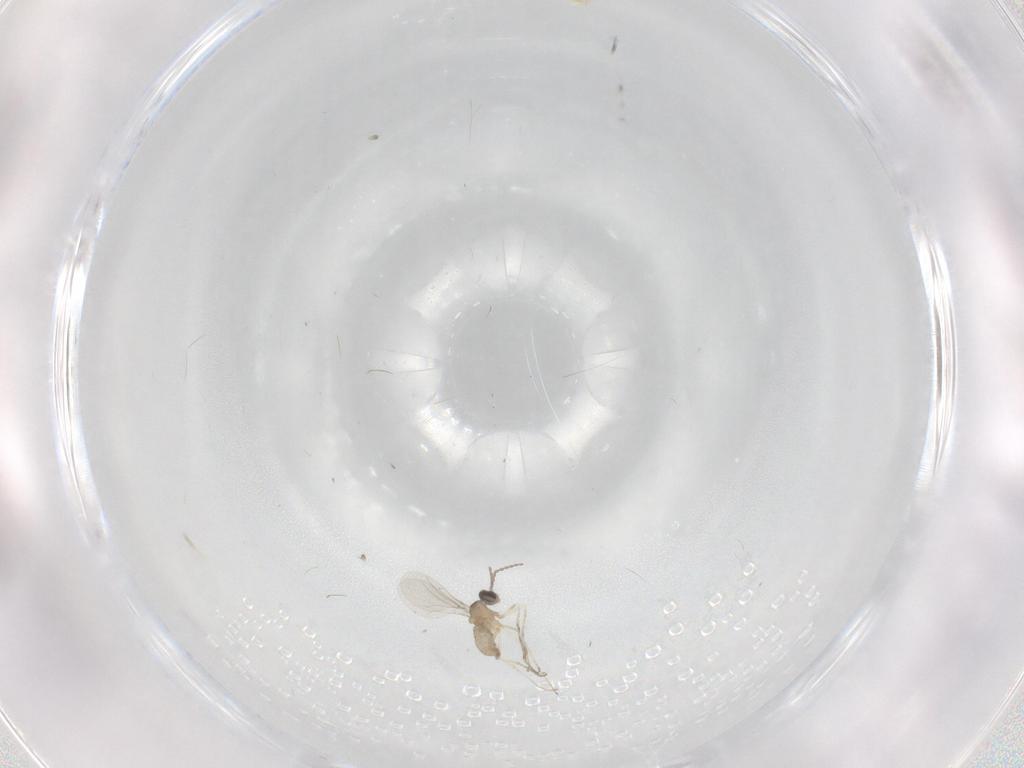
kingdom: Animalia
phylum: Arthropoda
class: Insecta
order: Diptera
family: Cecidomyiidae
